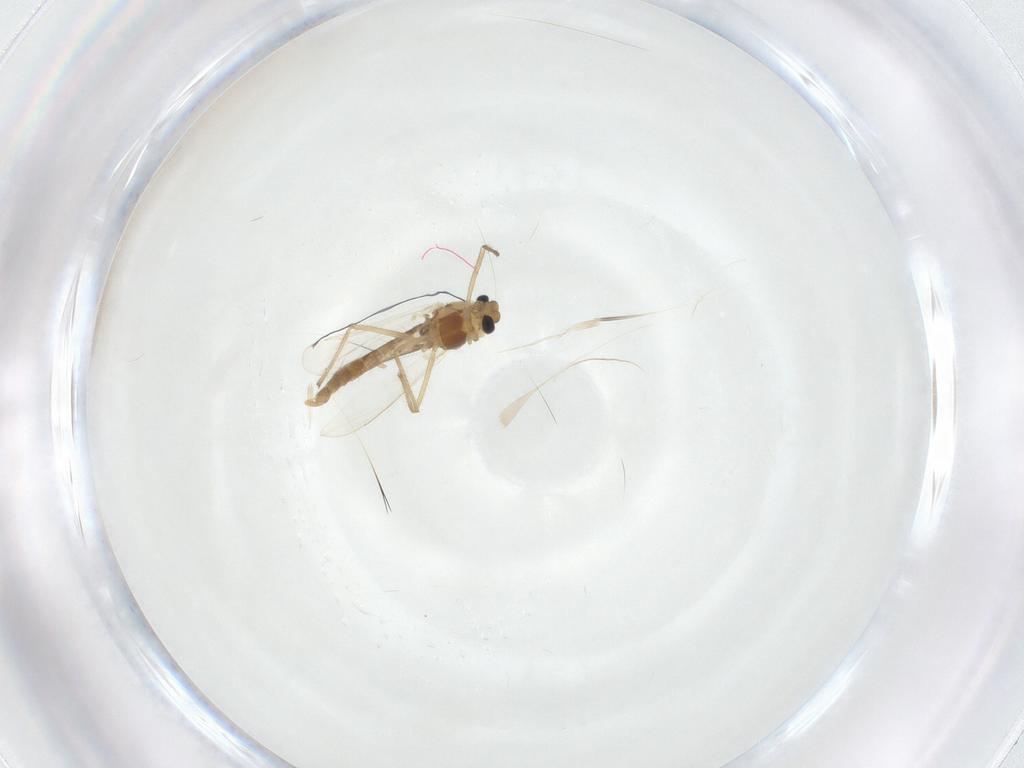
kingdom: Animalia
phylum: Arthropoda
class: Insecta
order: Diptera
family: Chironomidae
